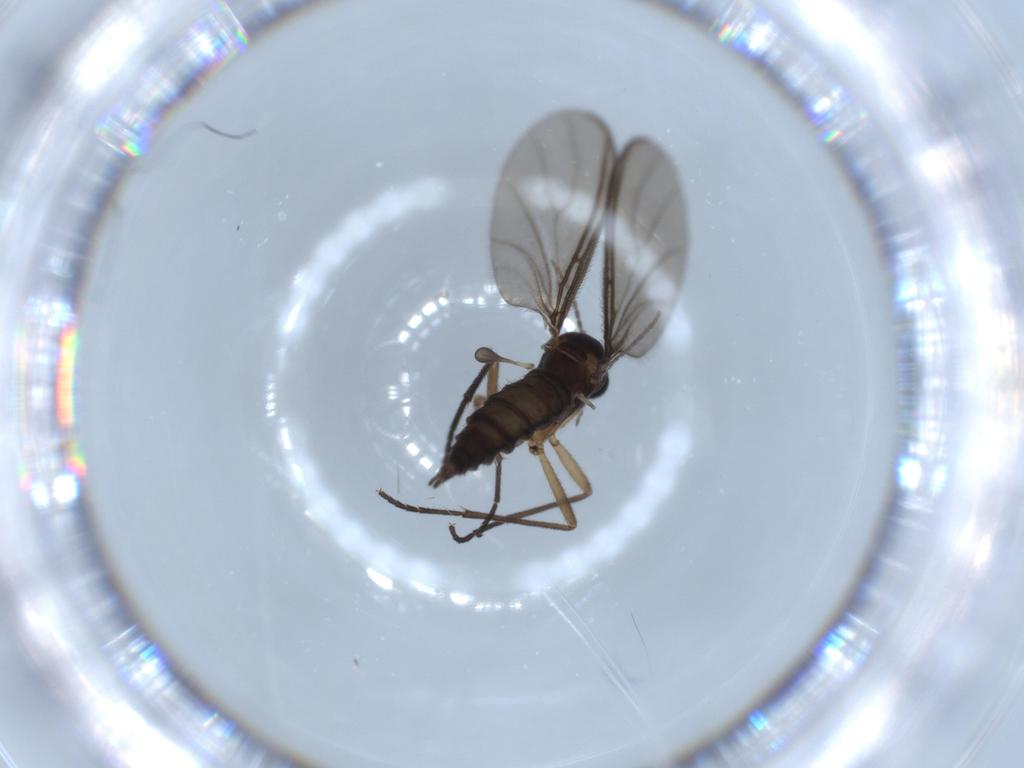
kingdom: Animalia
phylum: Arthropoda
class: Insecta
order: Diptera
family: Sciaridae
